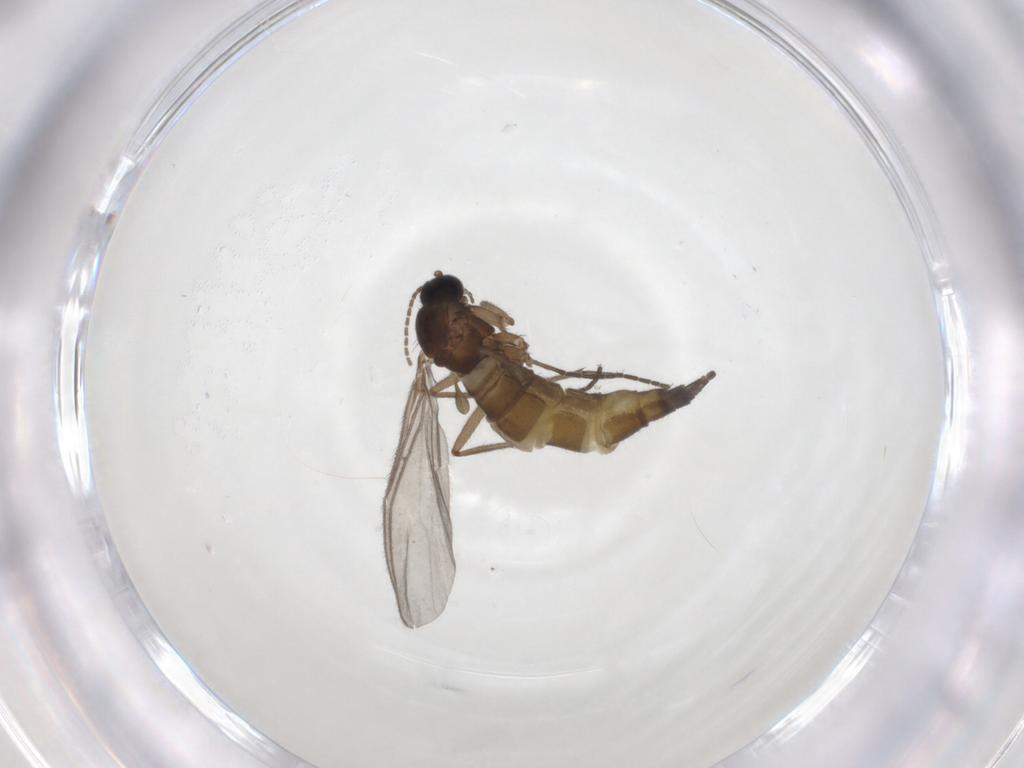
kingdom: Animalia
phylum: Arthropoda
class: Insecta
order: Diptera
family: Sciaridae
